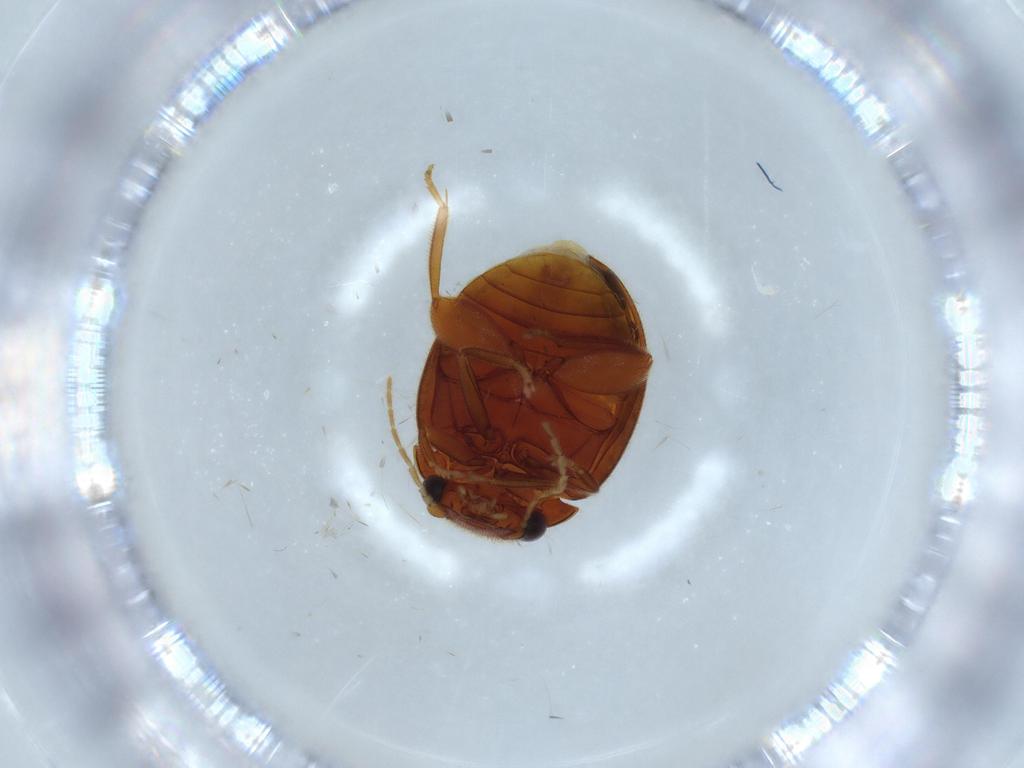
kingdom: Animalia
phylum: Arthropoda
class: Insecta
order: Coleoptera
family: Scirtidae
